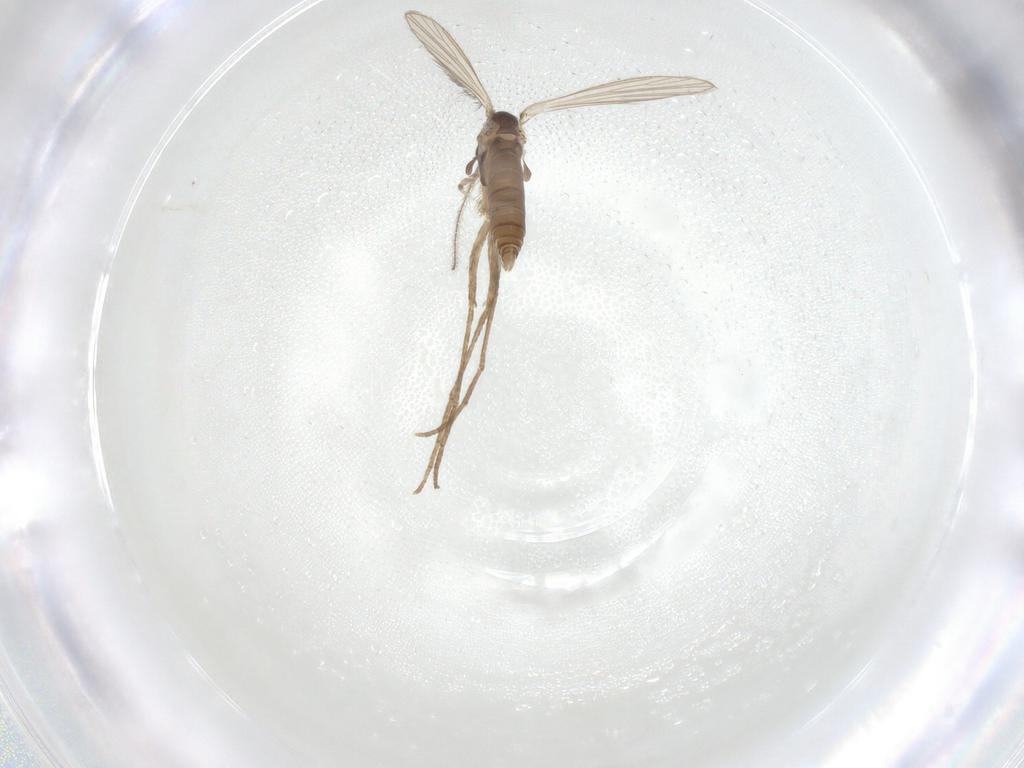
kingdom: Animalia
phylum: Arthropoda
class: Insecta
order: Diptera
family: Psychodidae
